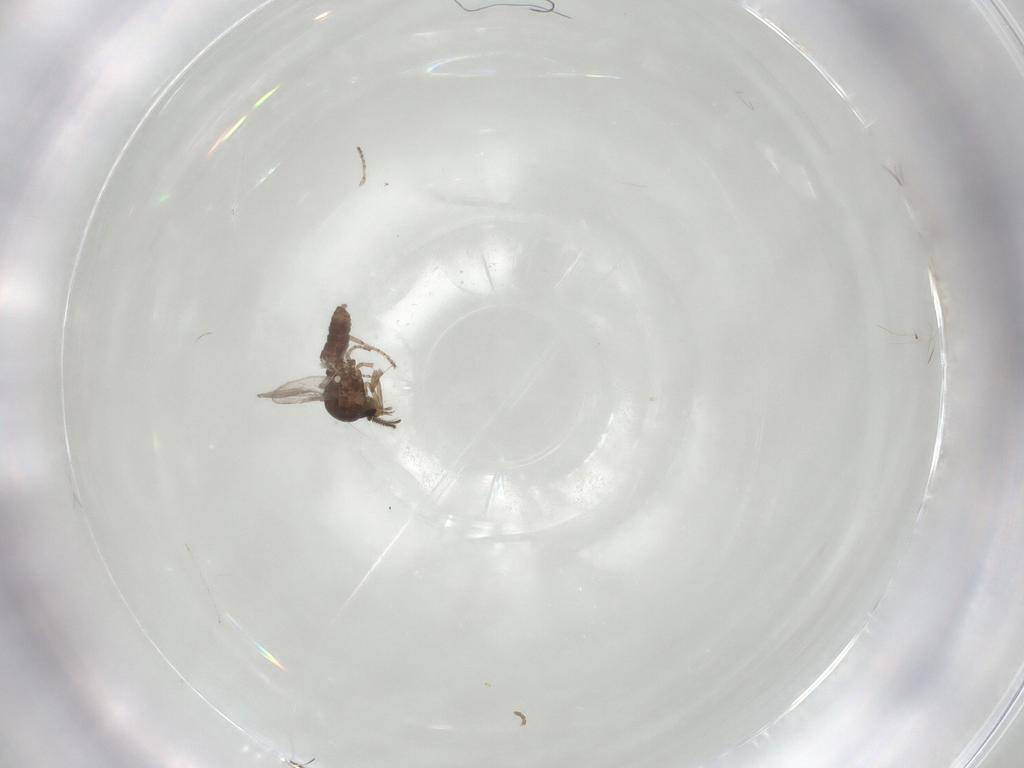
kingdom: Animalia
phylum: Arthropoda
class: Insecta
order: Diptera
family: Ceratopogonidae
